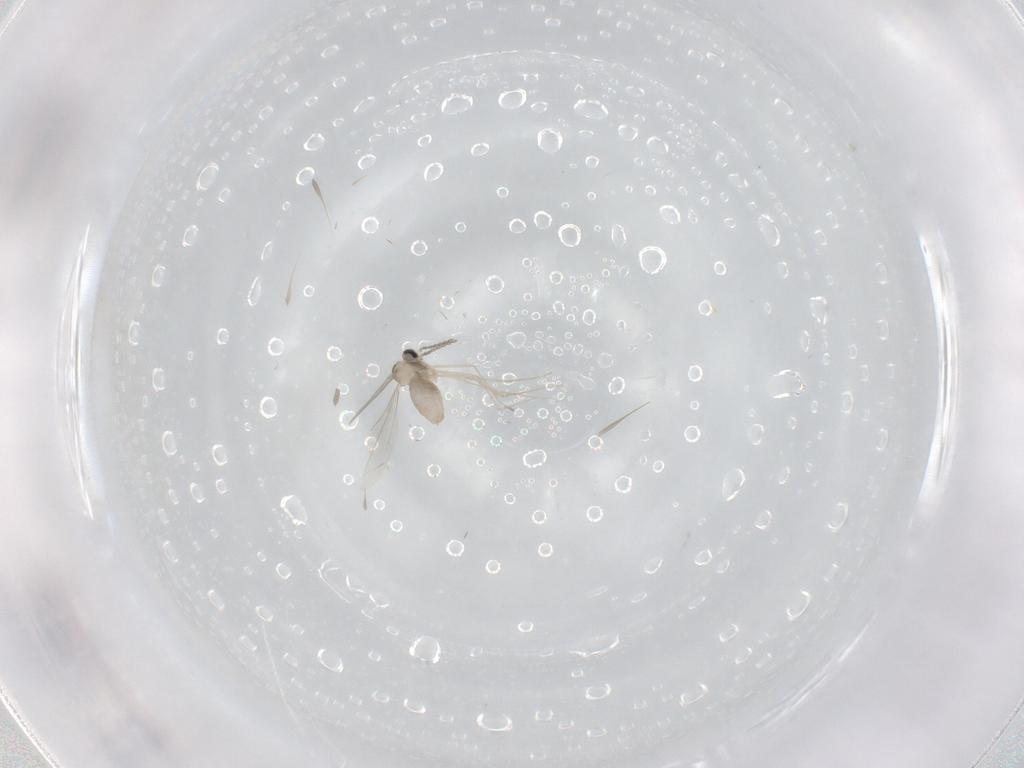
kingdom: Animalia
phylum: Arthropoda
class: Insecta
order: Diptera
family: Cecidomyiidae
